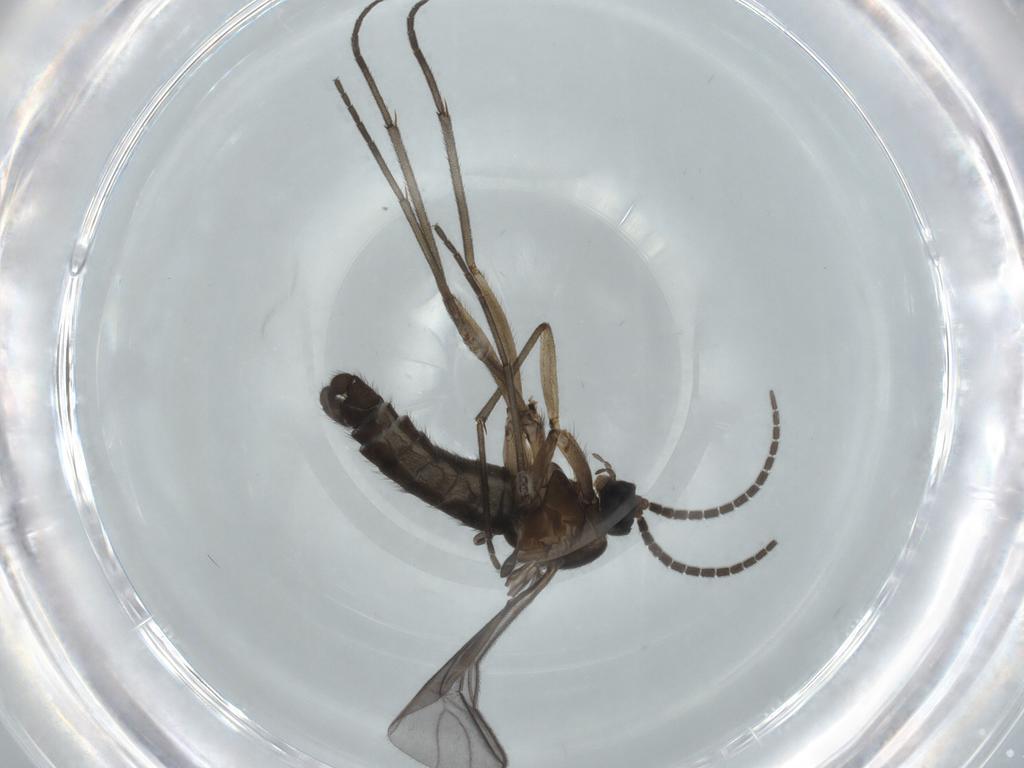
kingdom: Animalia
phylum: Arthropoda
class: Insecta
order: Diptera
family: Sciaridae
